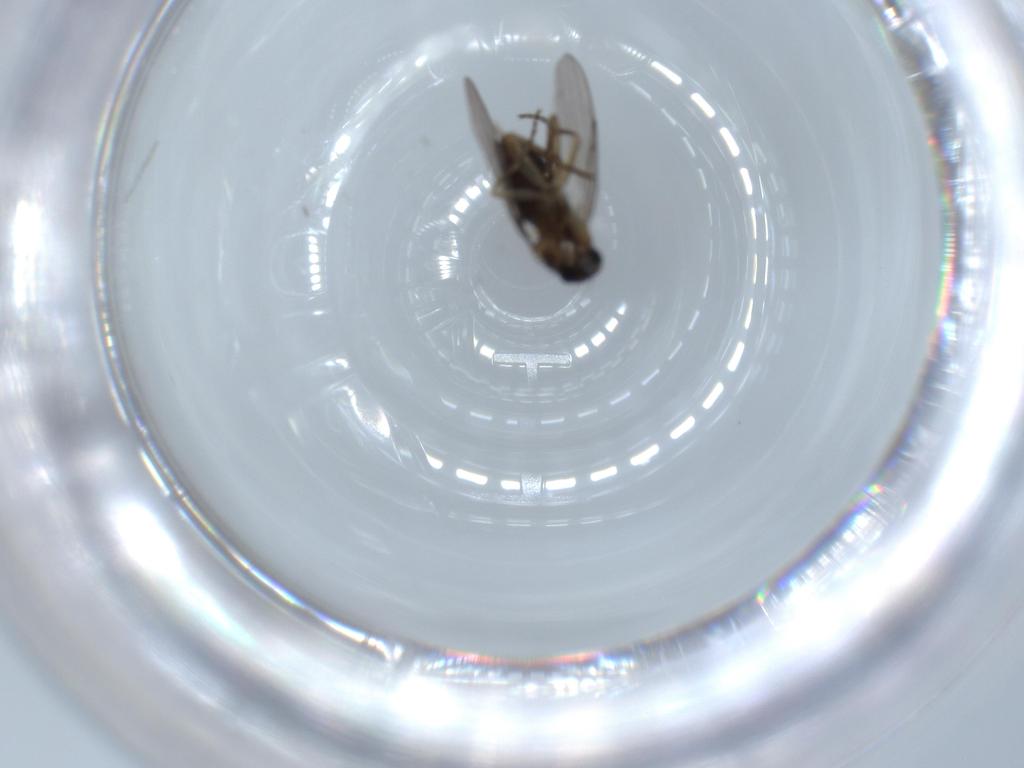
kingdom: Animalia
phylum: Arthropoda
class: Insecta
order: Diptera
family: Phoridae
